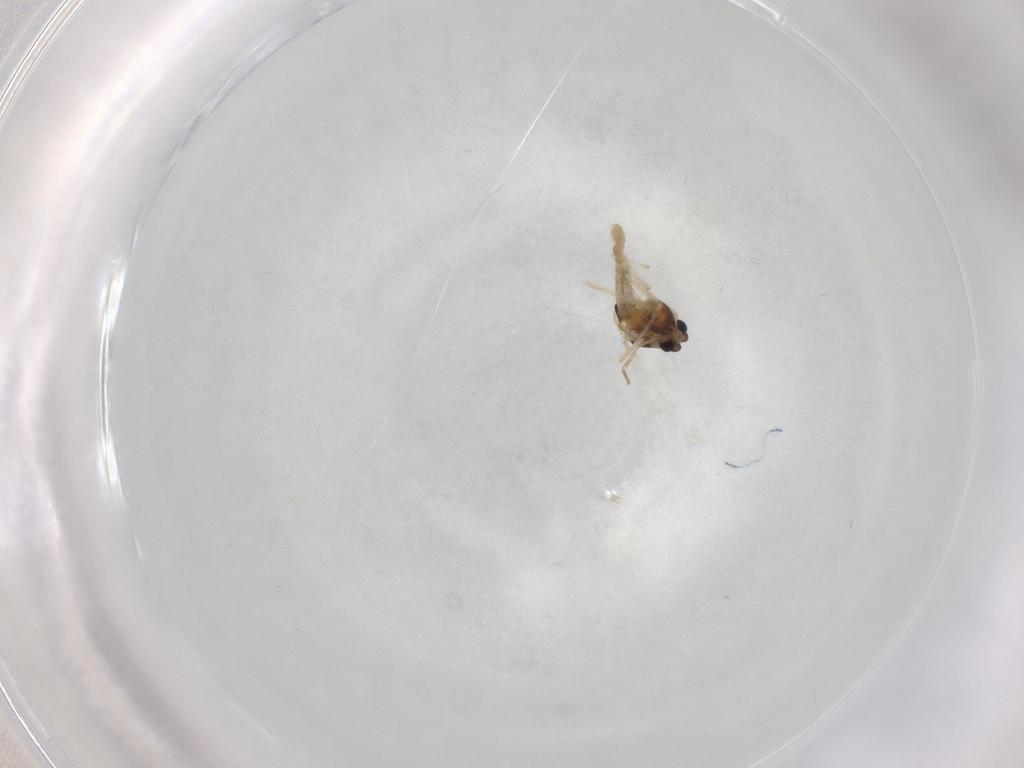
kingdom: Animalia
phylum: Arthropoda
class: Insecta
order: Diptera
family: Chironomidae
